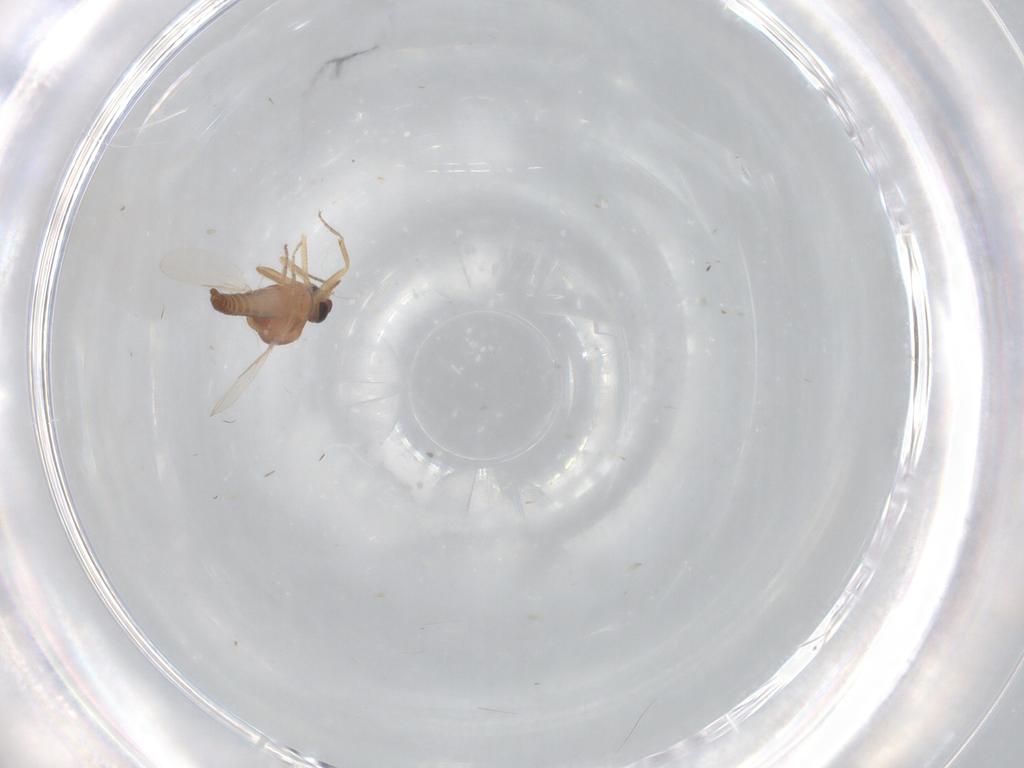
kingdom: Animalia
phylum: Arthropoda
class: Insecta
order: Diptera
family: Ceratopogonidae
